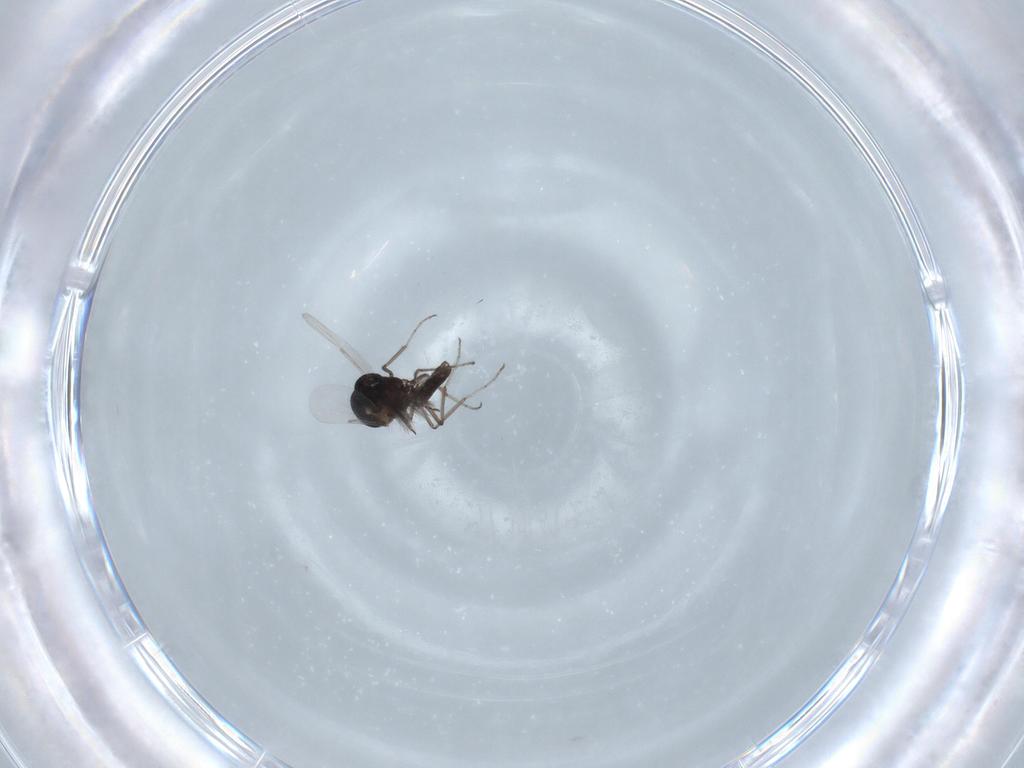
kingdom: Animalia
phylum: Arthropoda
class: Insecta
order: Diptera
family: Ceratopogonidae
